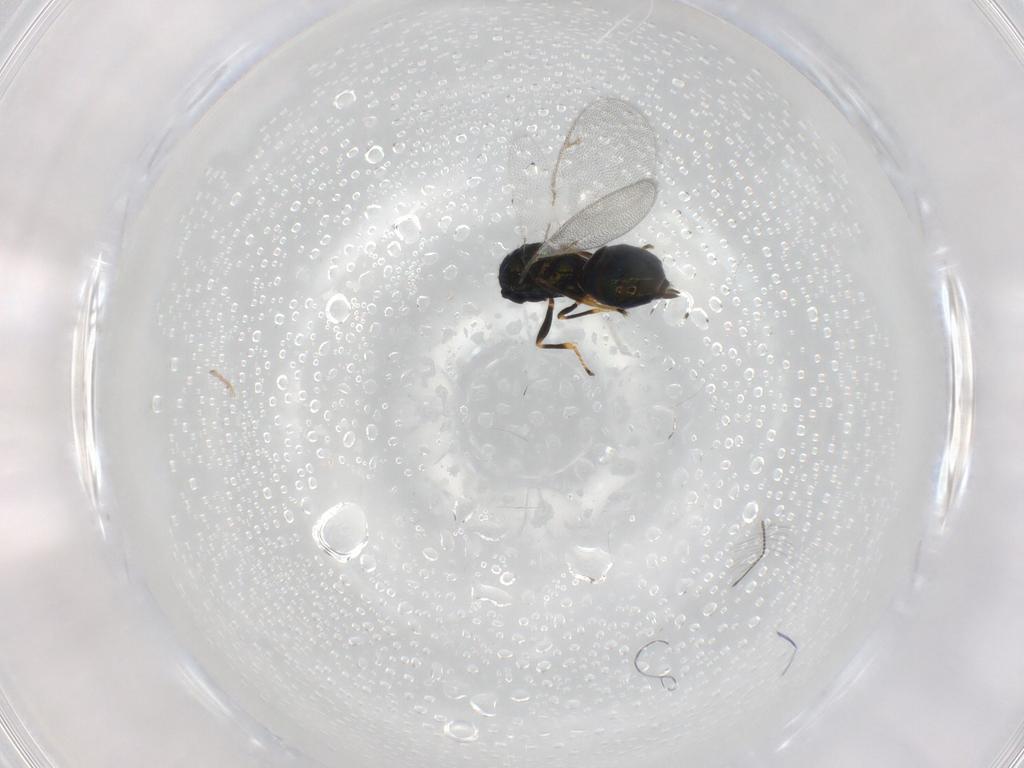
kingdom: Animalia
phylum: Arthropoda
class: Insecta
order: Hymenoptera
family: Pteromalidae
